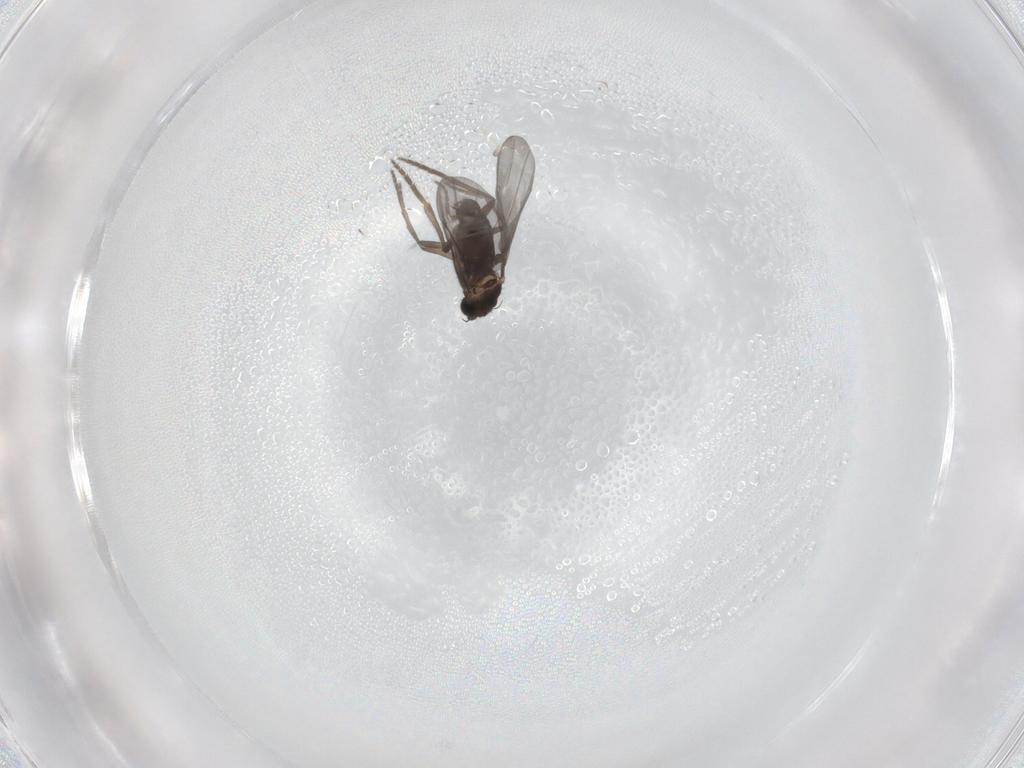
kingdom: Animalia
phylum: Arthropoda
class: Insecta
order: Diptera
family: Phoridae
